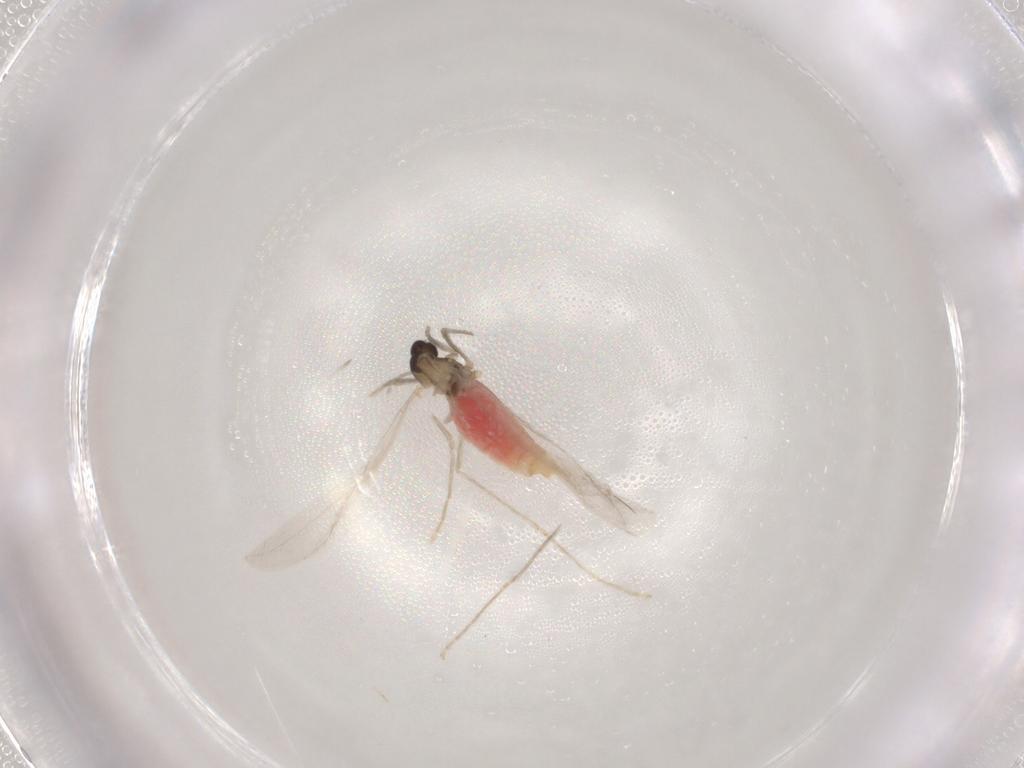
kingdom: Animalia
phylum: Arthropoda
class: Insecta
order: Diptera
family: Cecidomyiidae
